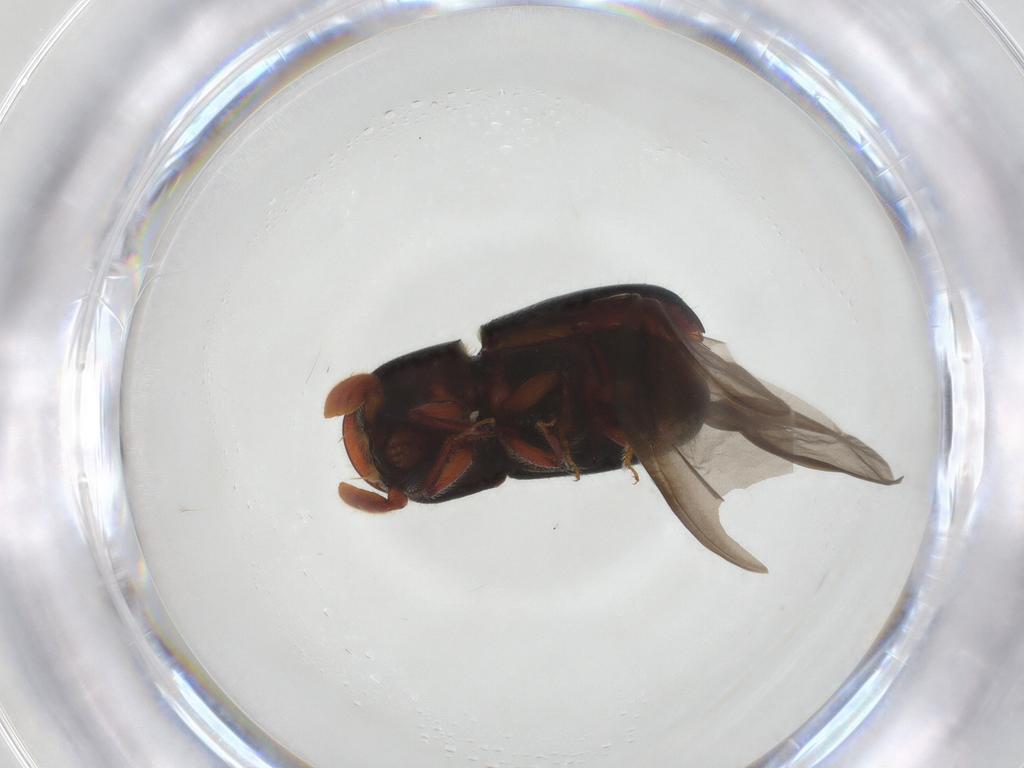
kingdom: Animalia
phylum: Arthropoda
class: Insecta
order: Coleoptera
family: Curculionidae
